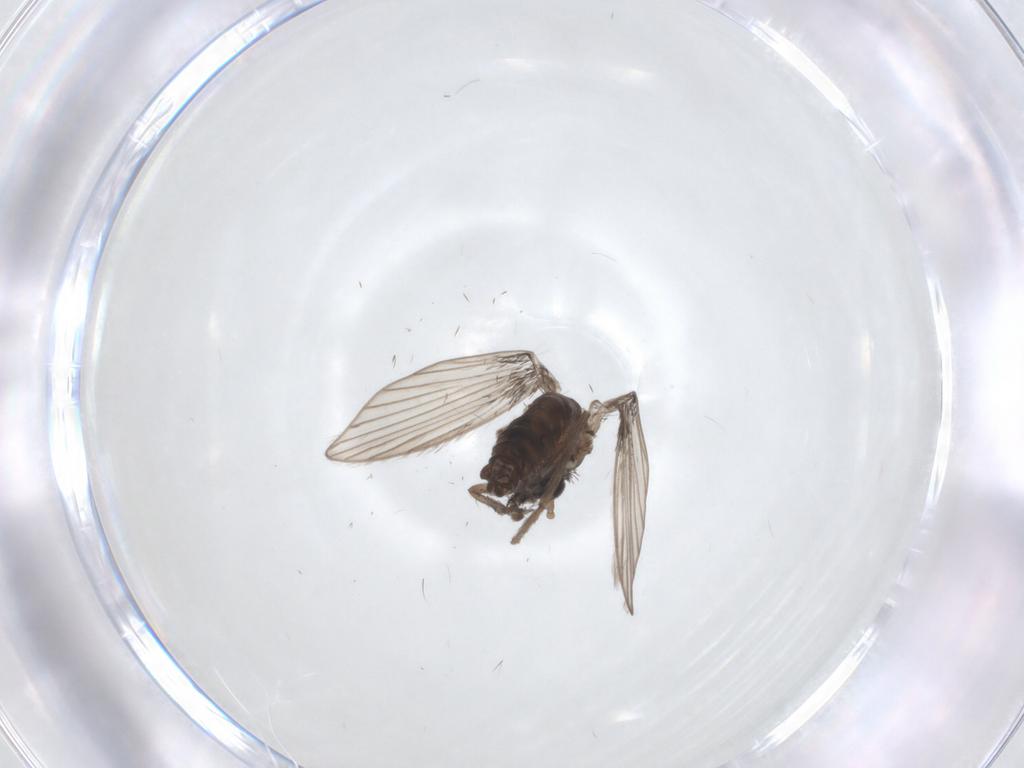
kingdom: Animalia
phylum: Arthropoda
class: Insecta
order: Diptera
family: Psychodidae
